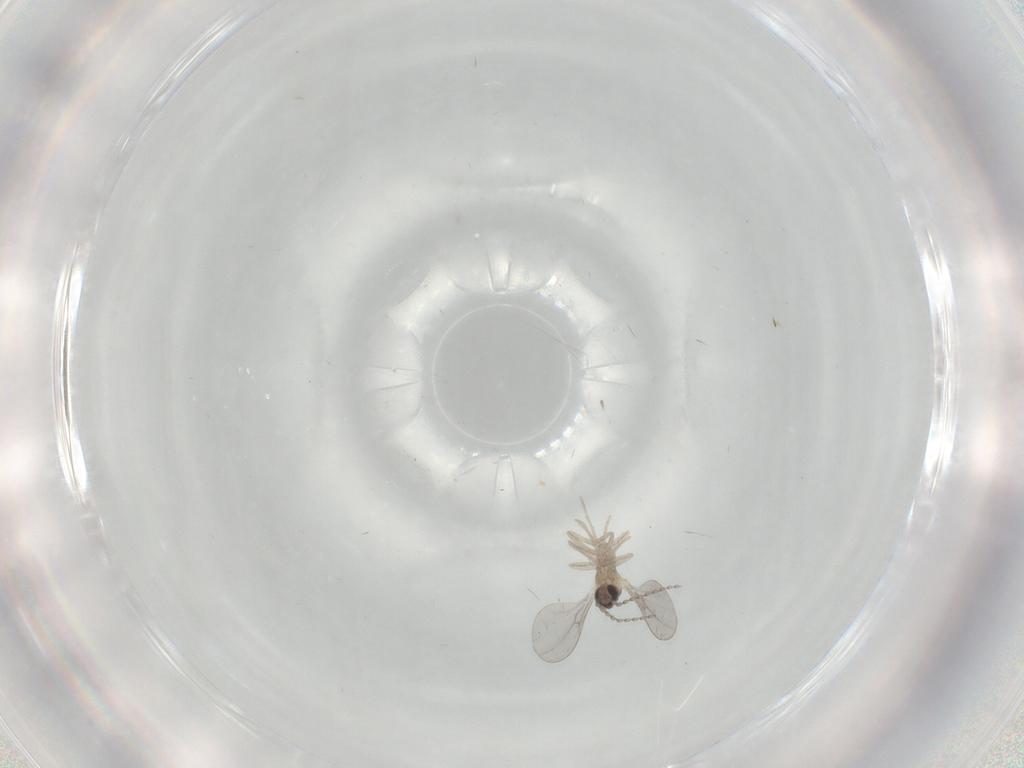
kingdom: Animalia
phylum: Arthropoda
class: Insecta
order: Diptera
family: Cecidomyiidae
